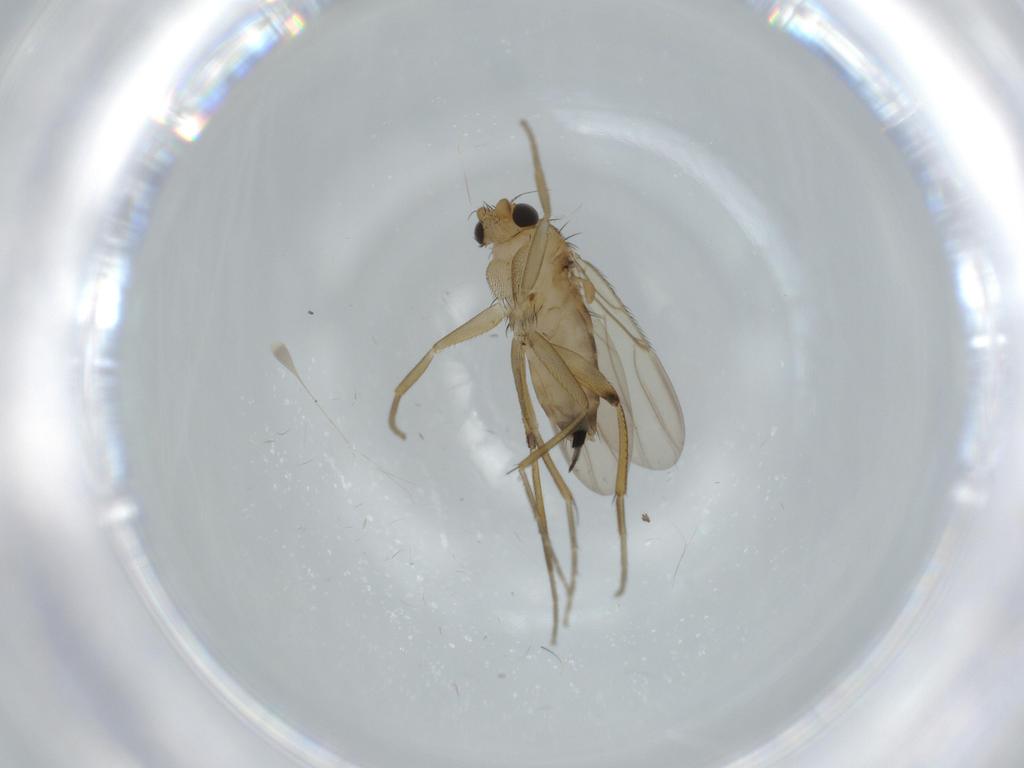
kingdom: Animalia
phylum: Arthropoda
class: Insecta
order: Diptera
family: Phoridae
